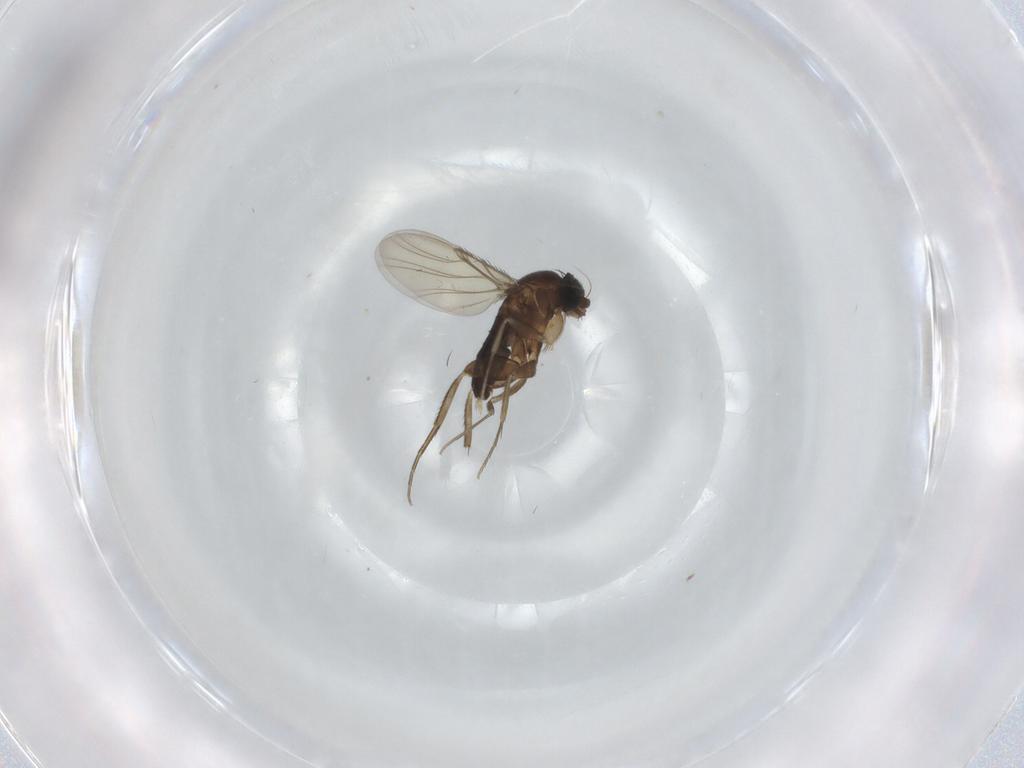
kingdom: Animalia
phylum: Arthropoda
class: Insecta
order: Diptera
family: Phoridae
